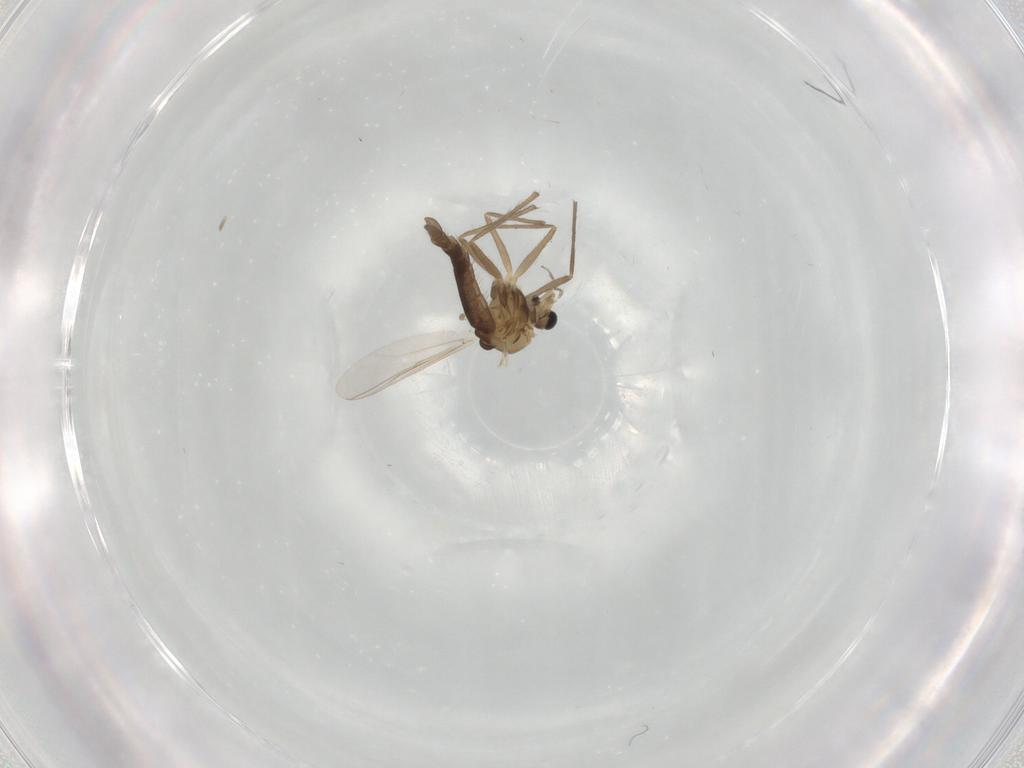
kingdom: Animalia
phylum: Arthropoda
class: Insecta
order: Diptera
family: Chironomidae
